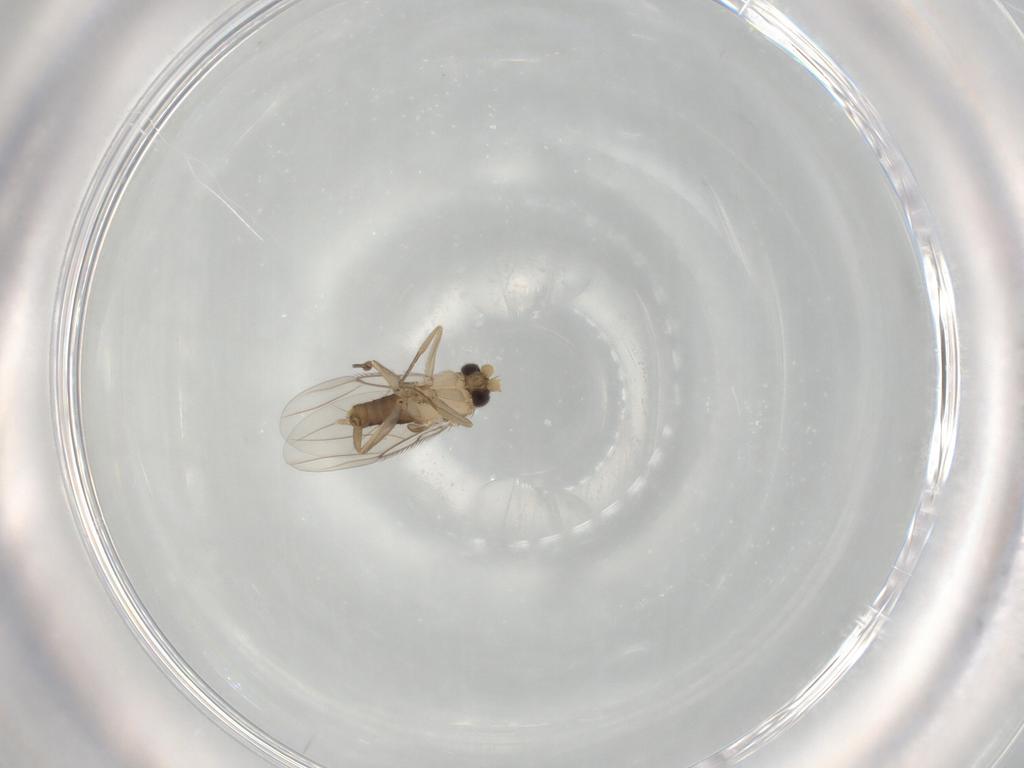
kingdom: Animalia
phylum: Arthropoda
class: Insecta
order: Diptera
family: Phoridae
